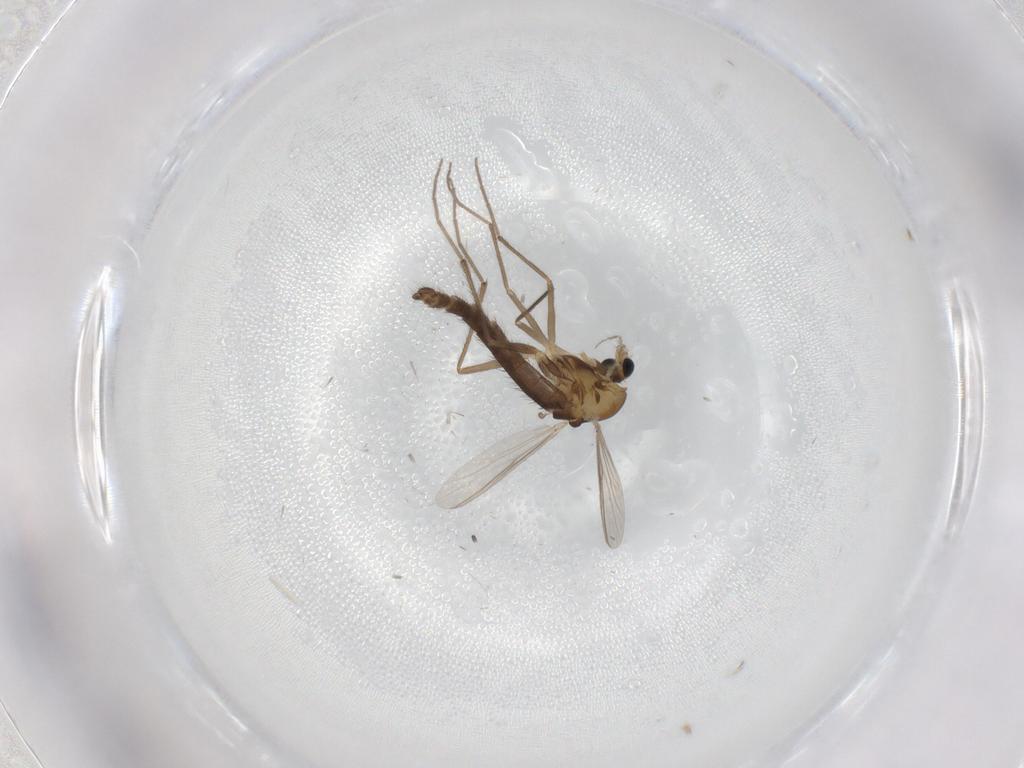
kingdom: Animalia
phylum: Arthropoda
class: Insecta
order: Diptera
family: Chironomidae
